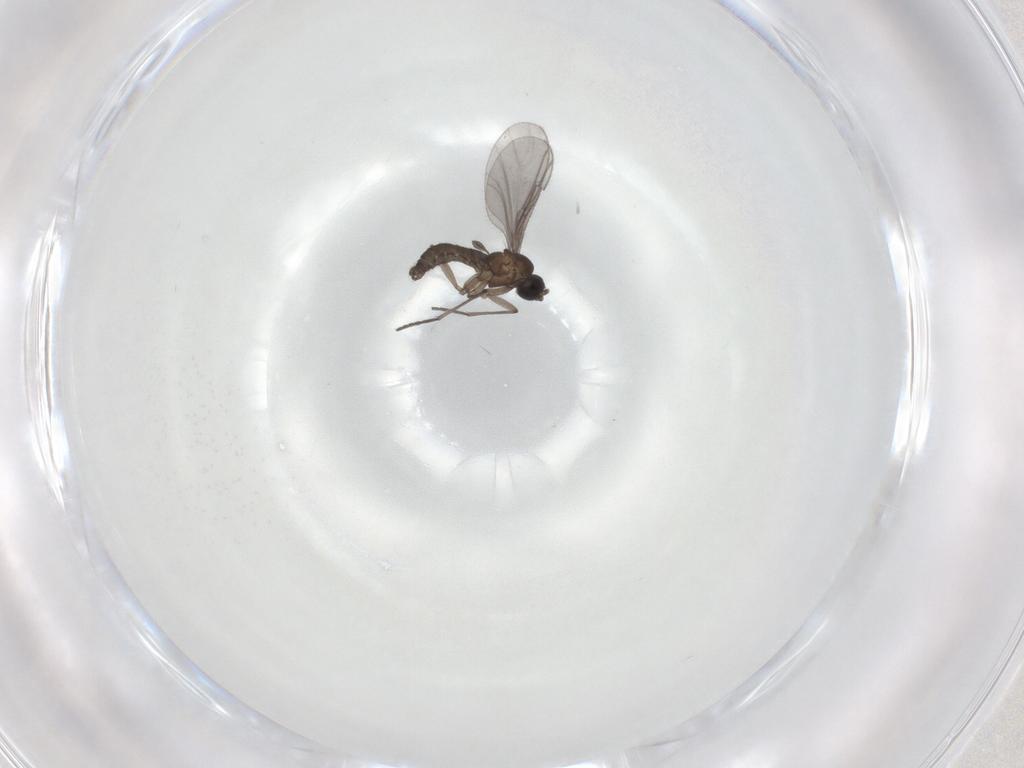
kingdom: Animalia
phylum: Arthropoda
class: Insecta
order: Diptera
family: Sciaridae
